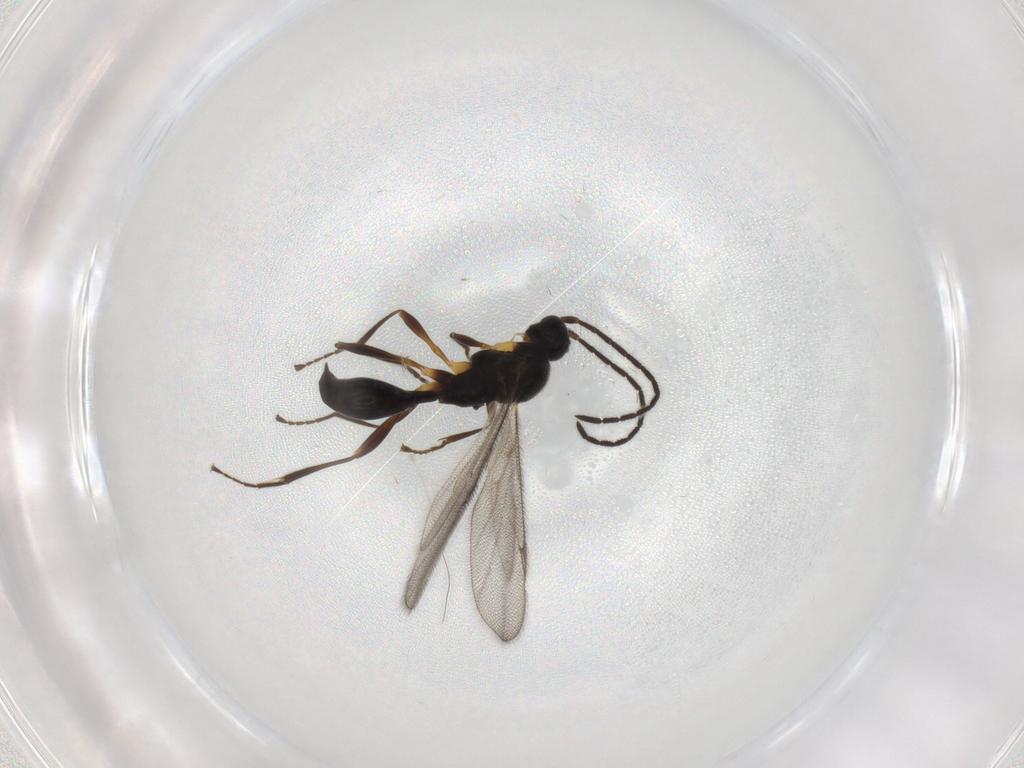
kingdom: Animalia
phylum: Arthropoda
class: Insecta
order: Hymenoptera
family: Proctotrupidae
